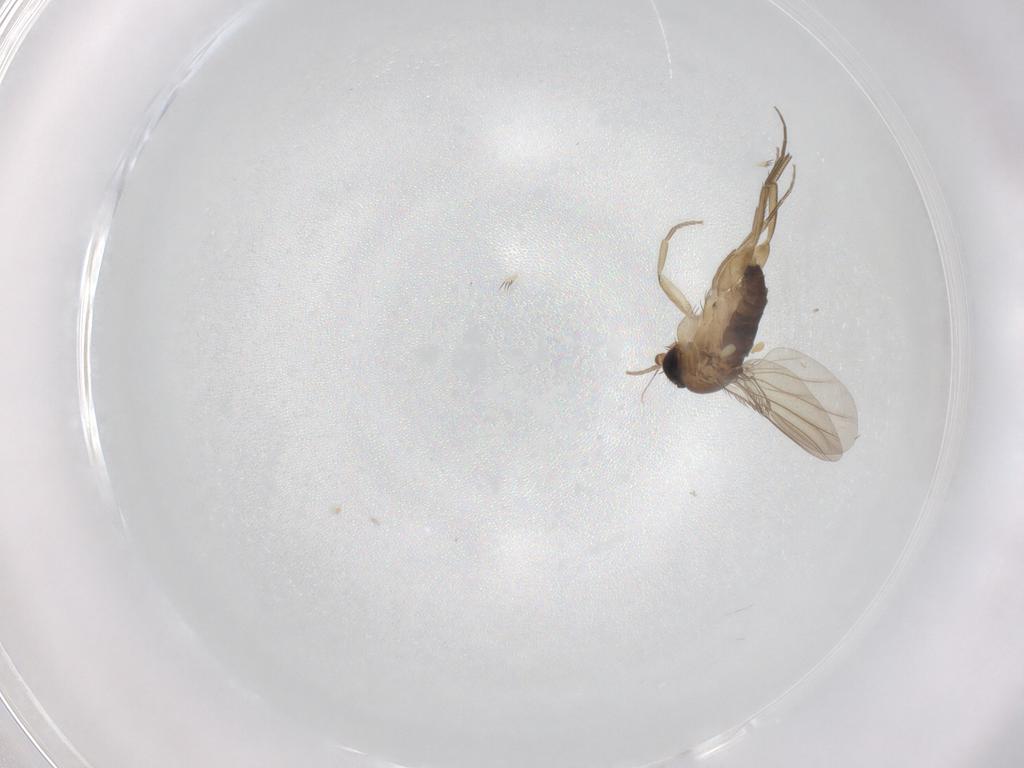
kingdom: Animalia
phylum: Arthropoda
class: Insecta
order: Diptera
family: Phoridae
